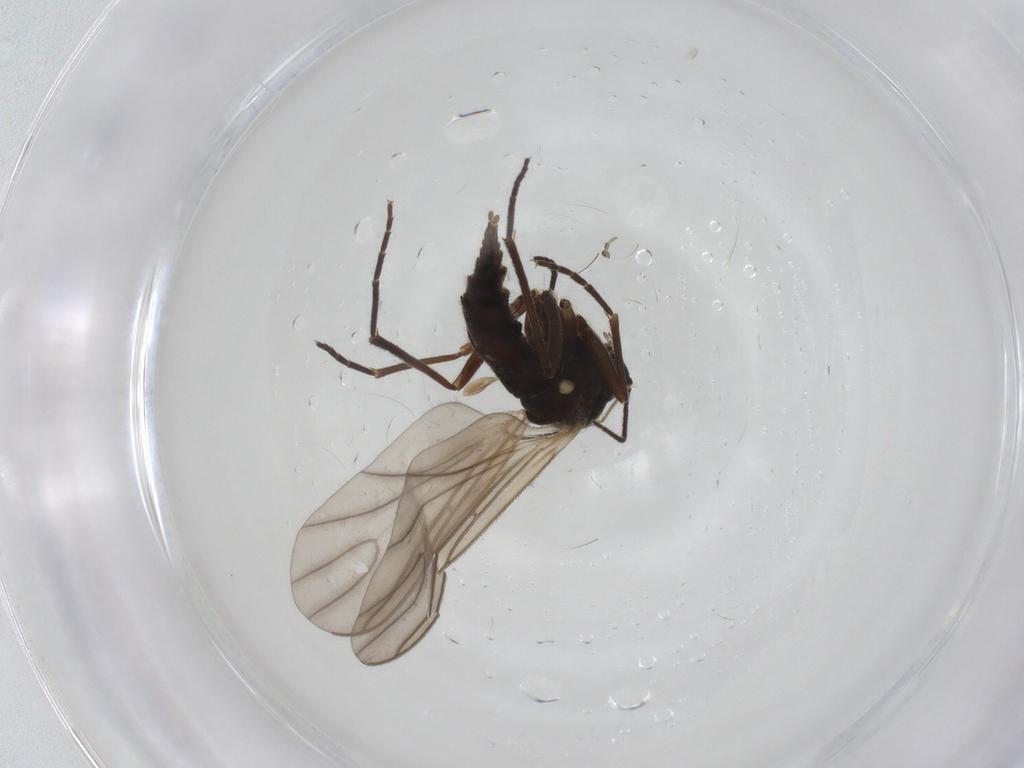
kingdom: Animalia
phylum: Arthropoda
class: Insecta
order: Diptera
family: Sciaridae
